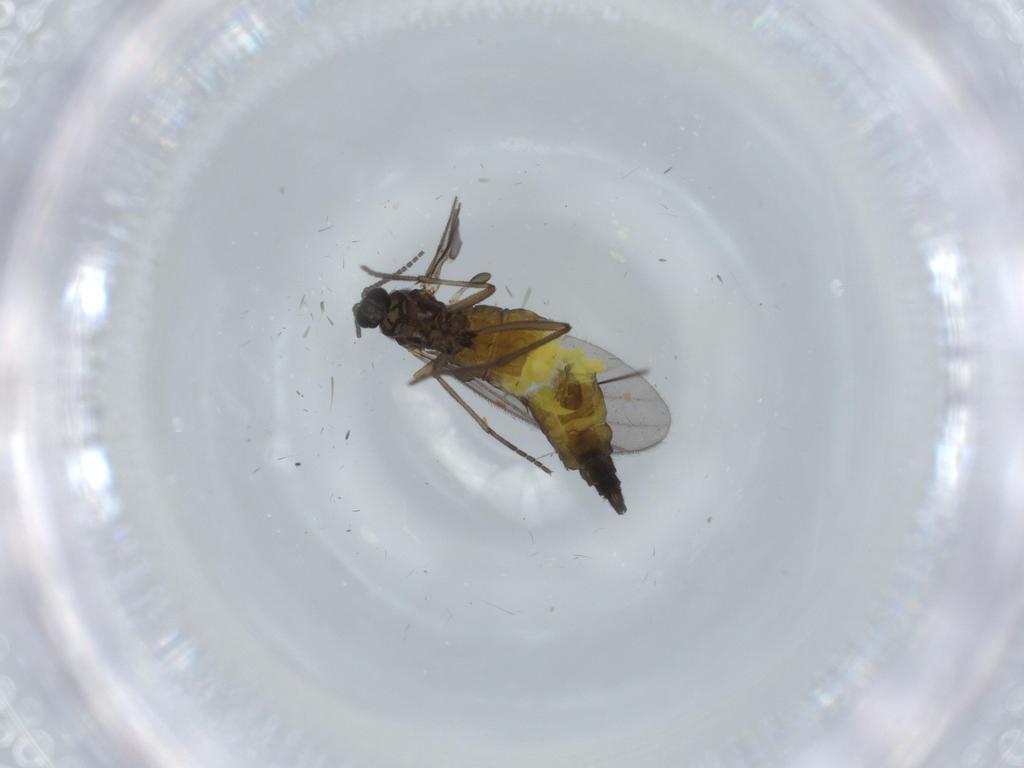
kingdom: Animalia
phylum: Arthropoda
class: Insecta
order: Diptera
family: Sciaridae
